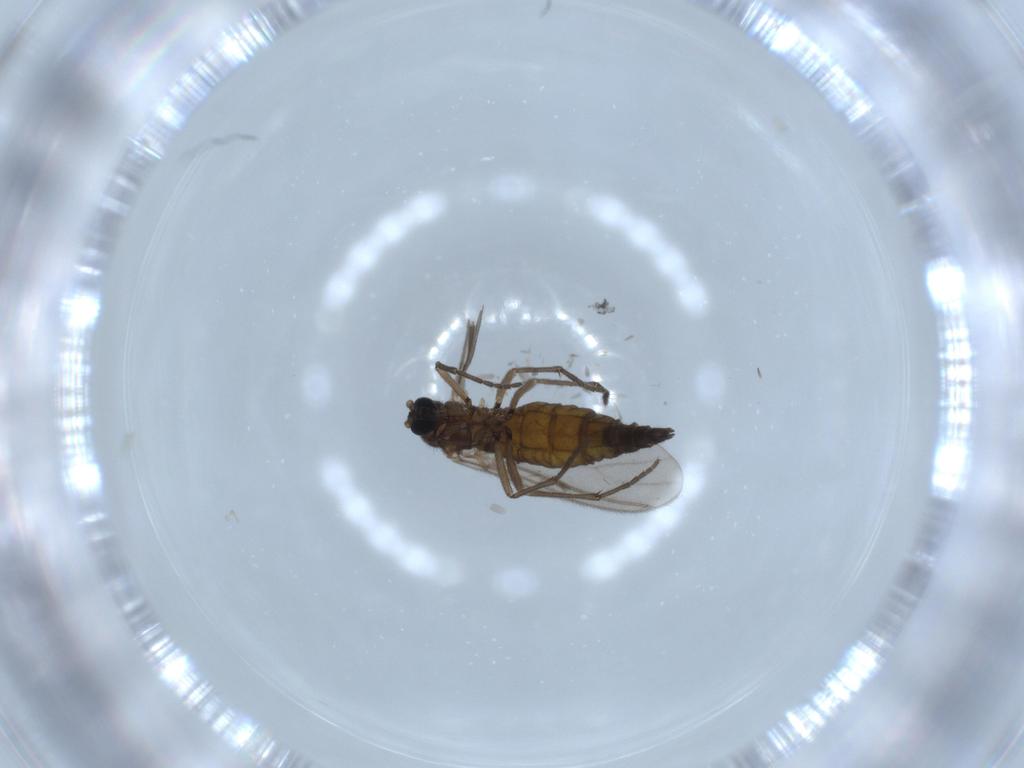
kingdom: Animalia
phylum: Arthropoda
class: Insecta
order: Diptera
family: Sciaridae
